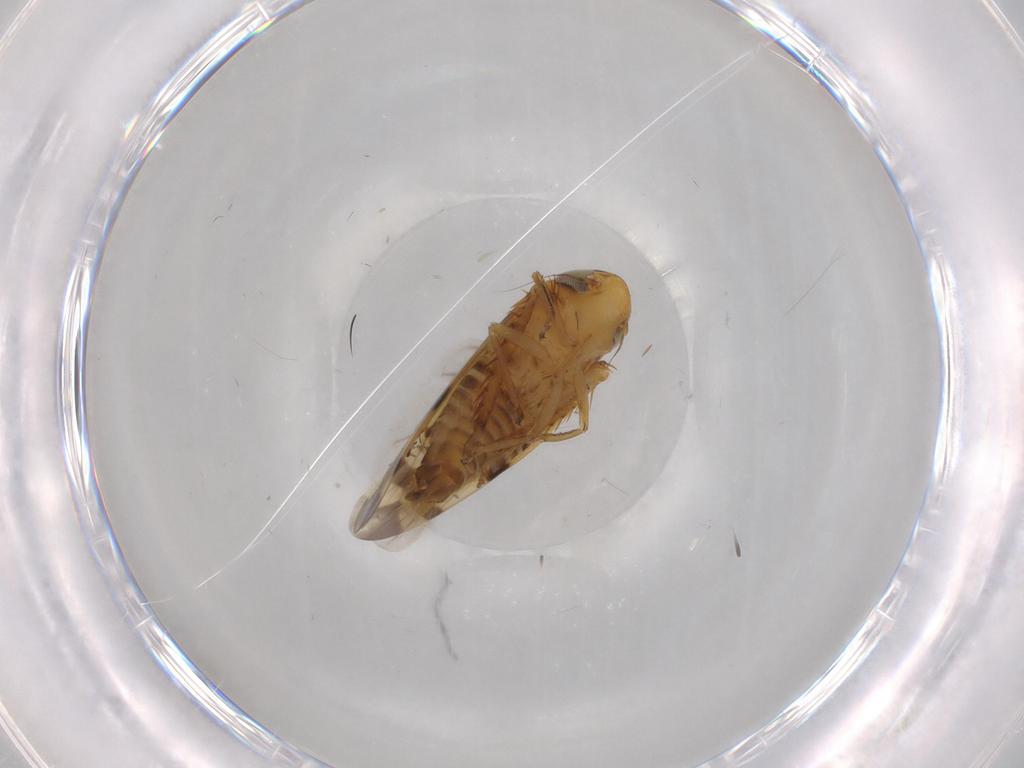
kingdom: Animalia
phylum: Arthropoda
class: Insecta
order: Hemiptera
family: Cicadellidae
